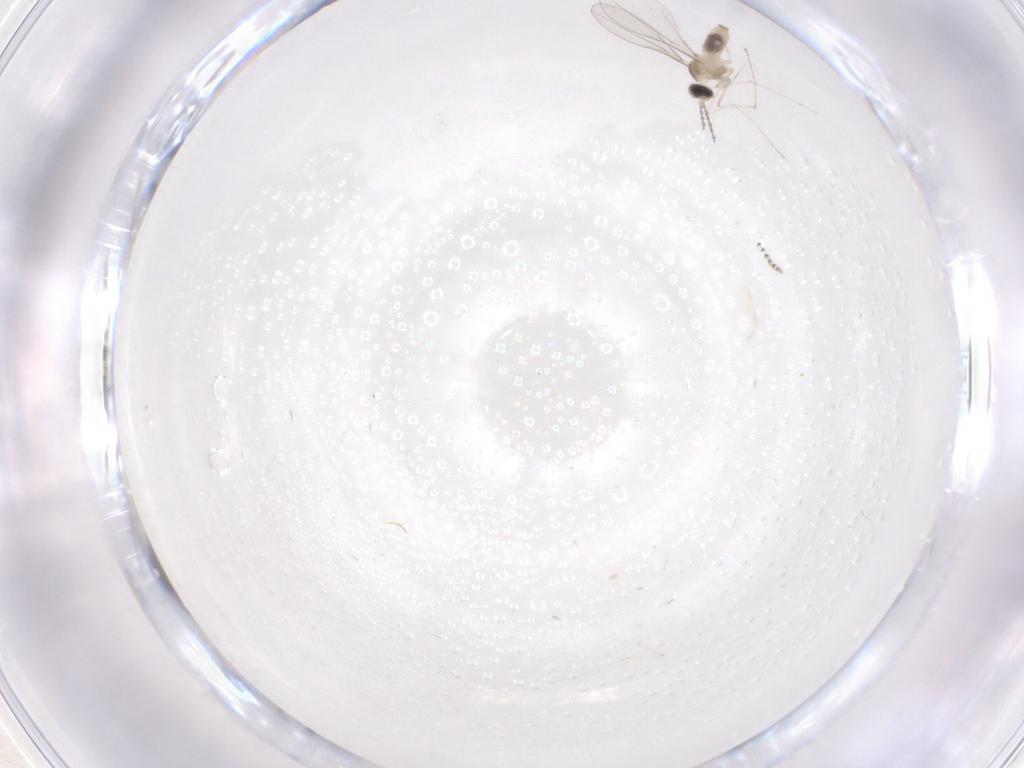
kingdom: Animalia
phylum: Arthropoda
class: Insecta
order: Diptera
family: Cecidomyiidae
